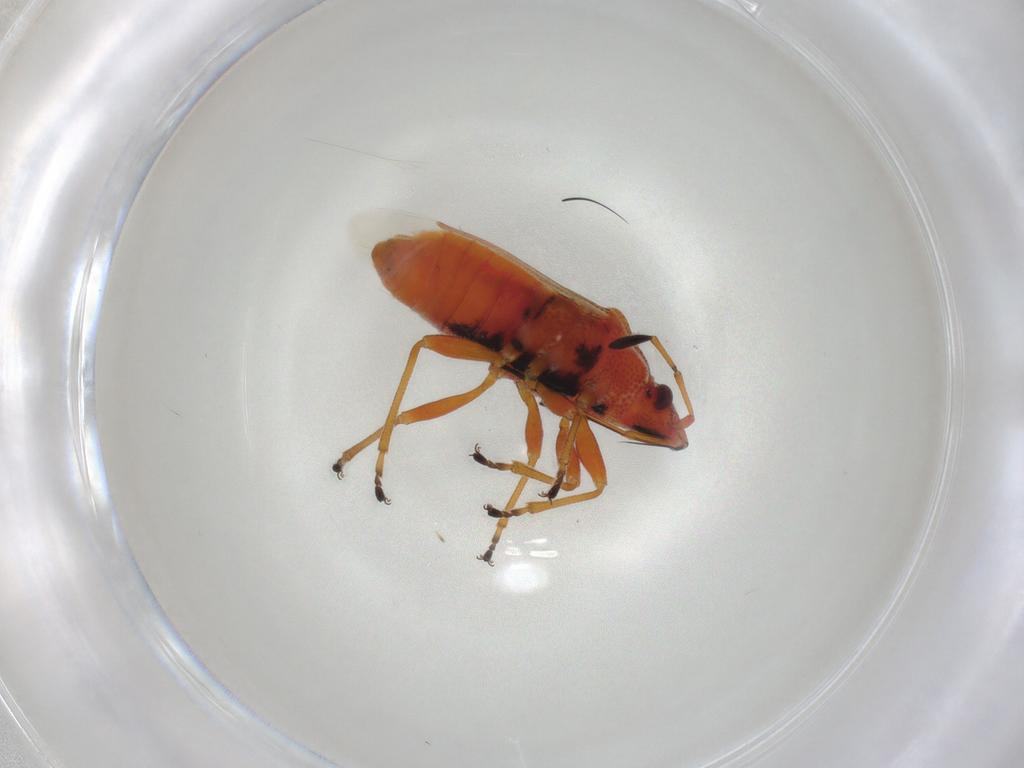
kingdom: Animalia
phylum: Arthropoda
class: Insecta
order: Hemiptera
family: Lygaeidae
